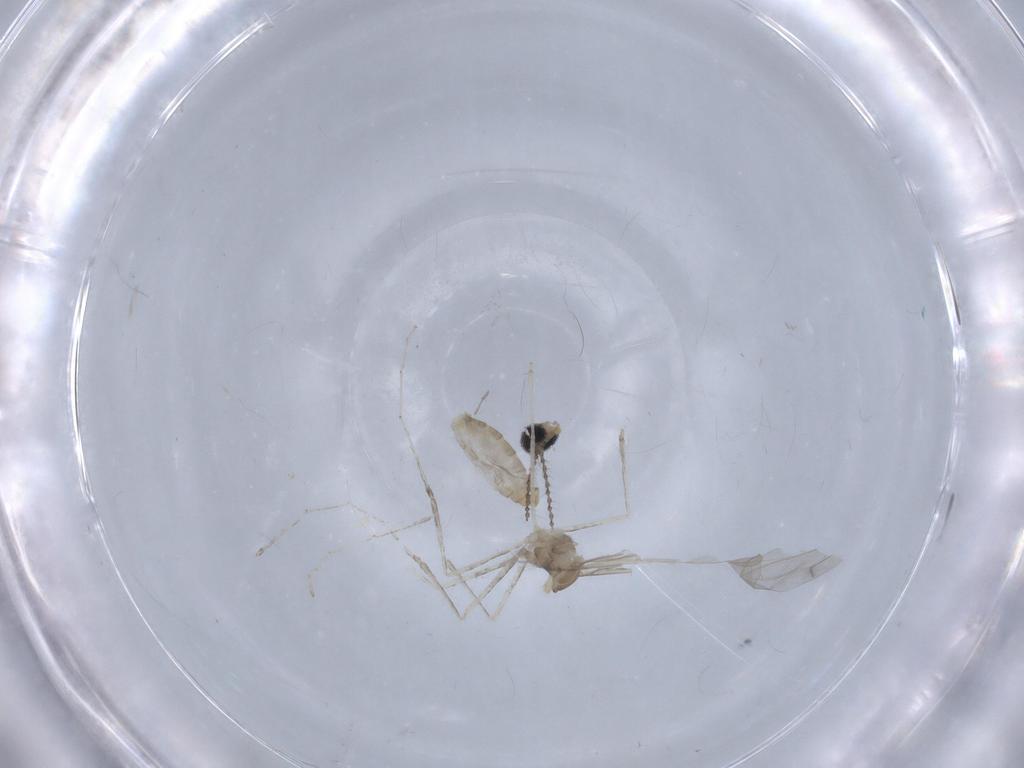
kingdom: Animalia
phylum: Arthropoda
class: Insecta
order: Diptera
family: Cecidomyiidae
